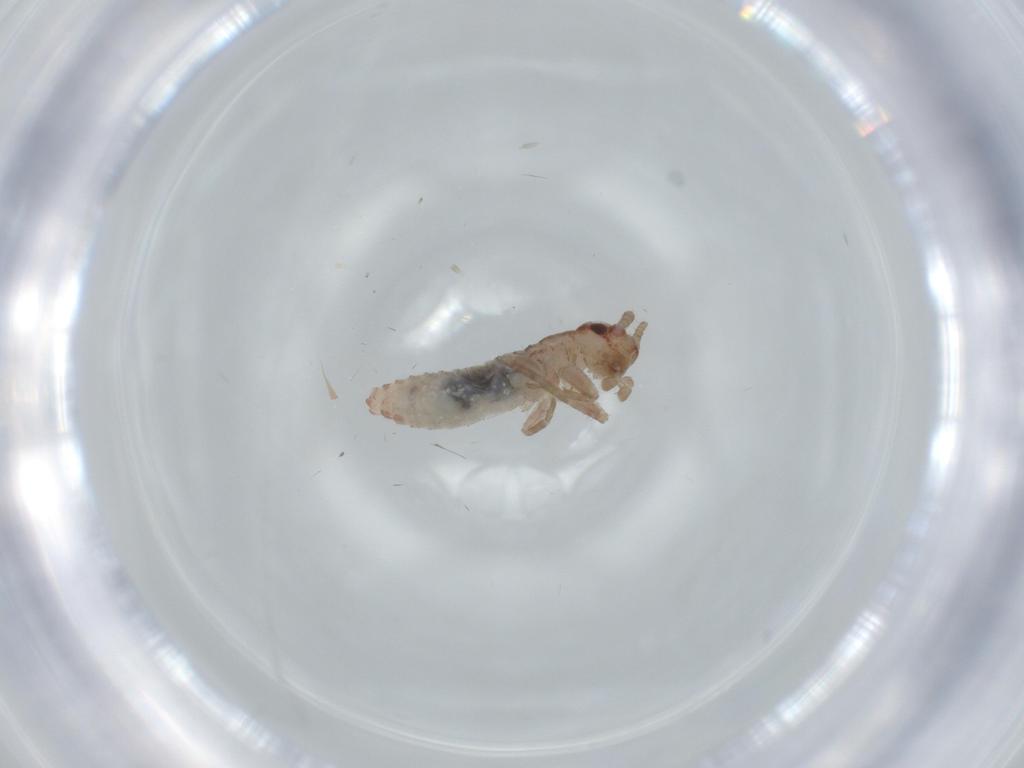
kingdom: Animalia
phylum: Arthropoda
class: Insecta
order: Orthoptera
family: Mogoplistidae
